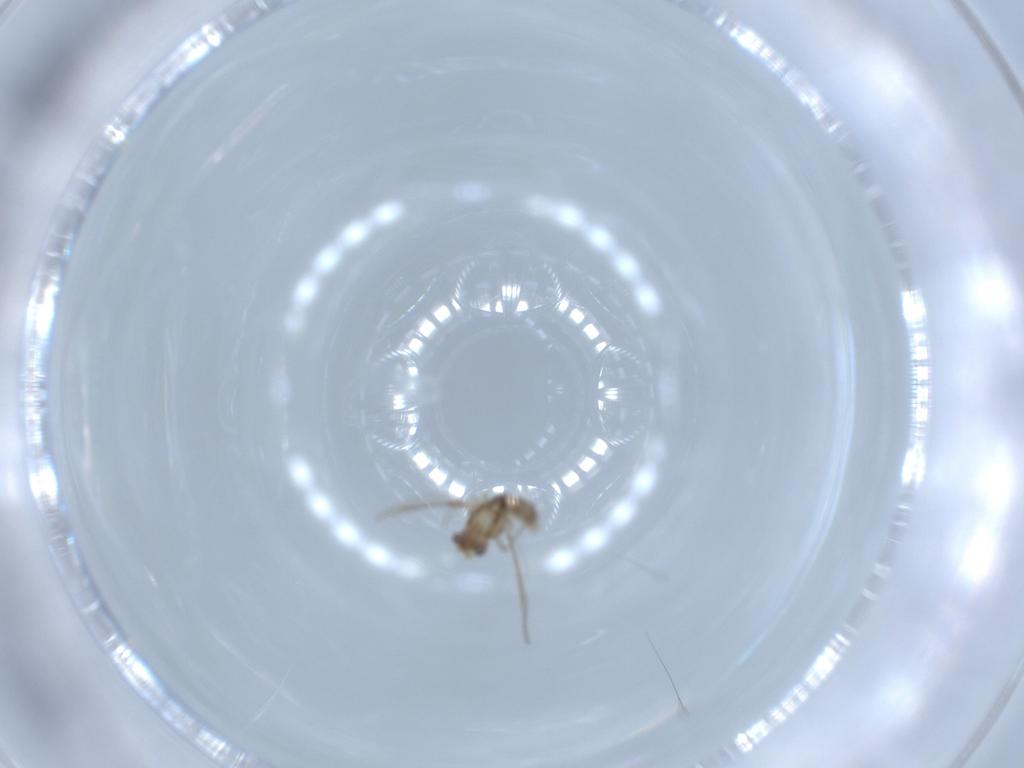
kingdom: Animalia
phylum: Arthropoda
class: Insecta
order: Diptera
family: Chironomidae
